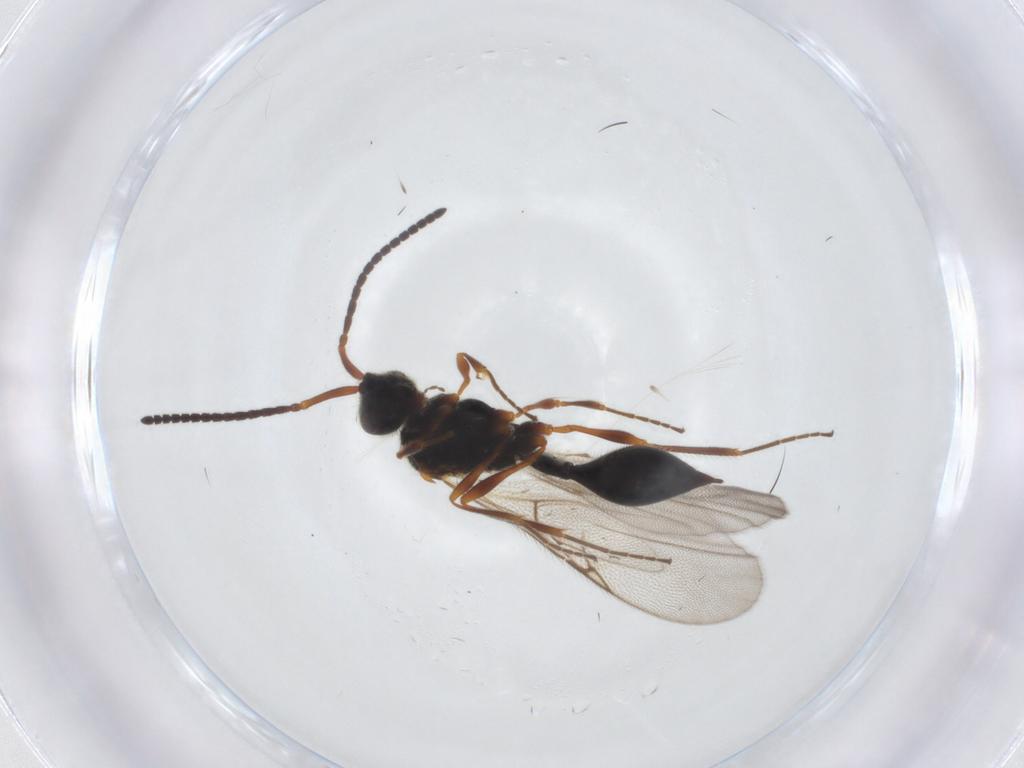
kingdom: Animalia
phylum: Arthropoda
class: Insecta
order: Hymenoptera
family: Diapriidae
